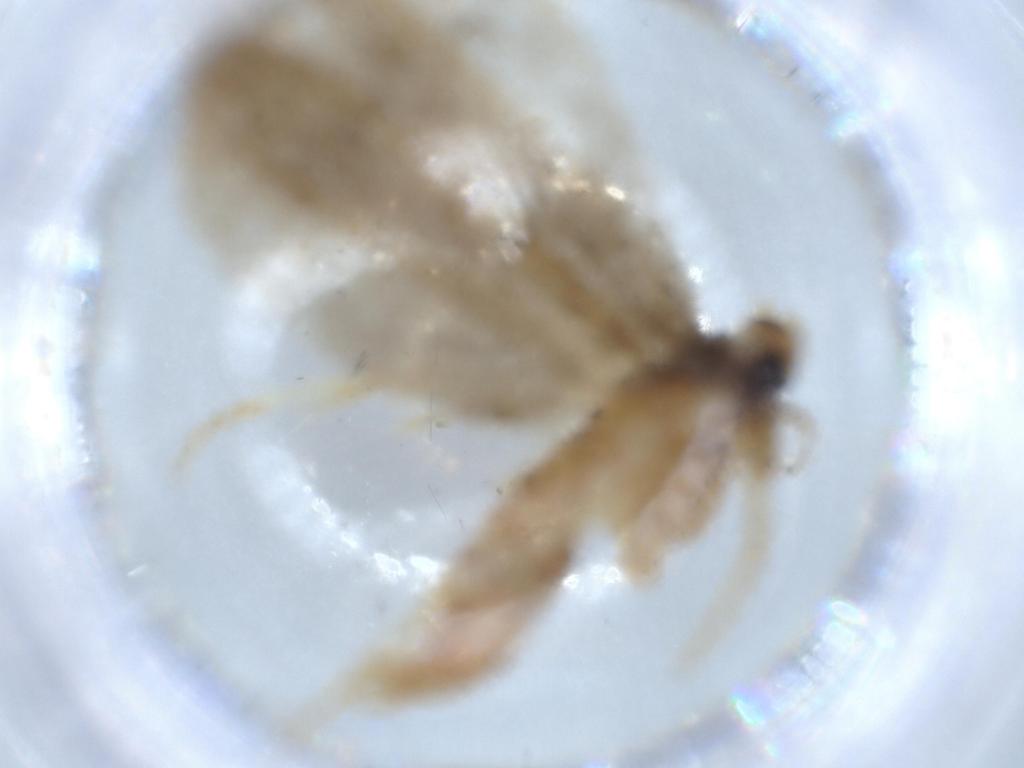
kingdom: Animalia
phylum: Arthropoda
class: Insecta
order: Lepidoptera
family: Lecithoceridae
